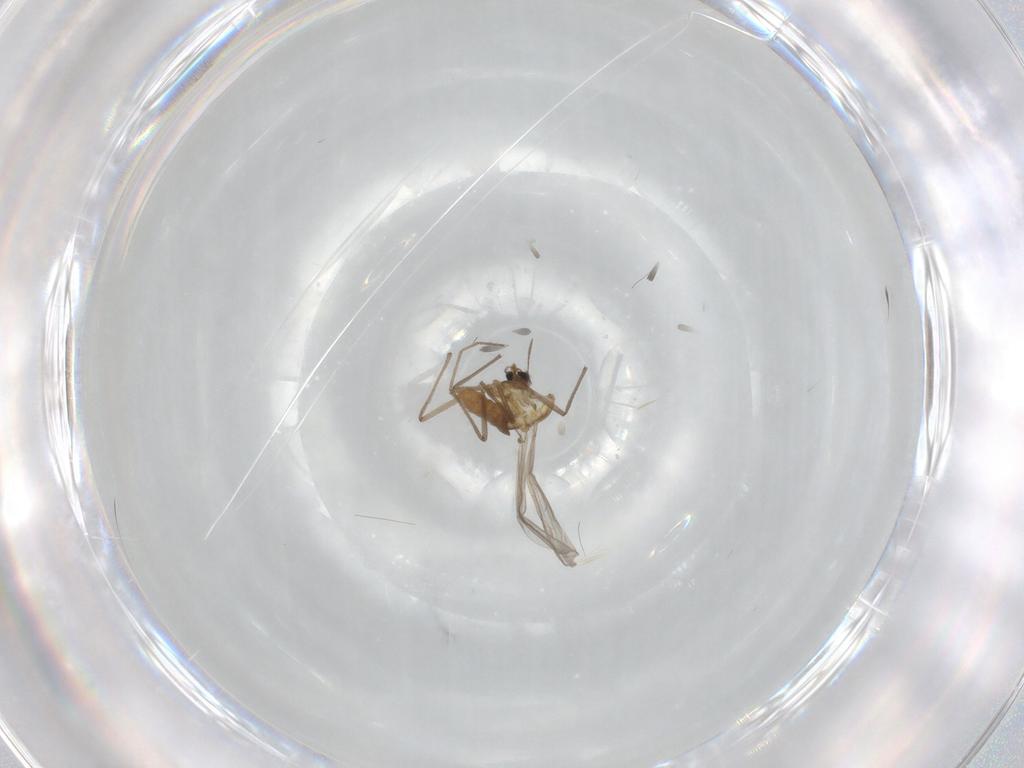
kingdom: Animalia
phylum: Arthropoda
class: Insecta
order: Diptera
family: Chironomidae
